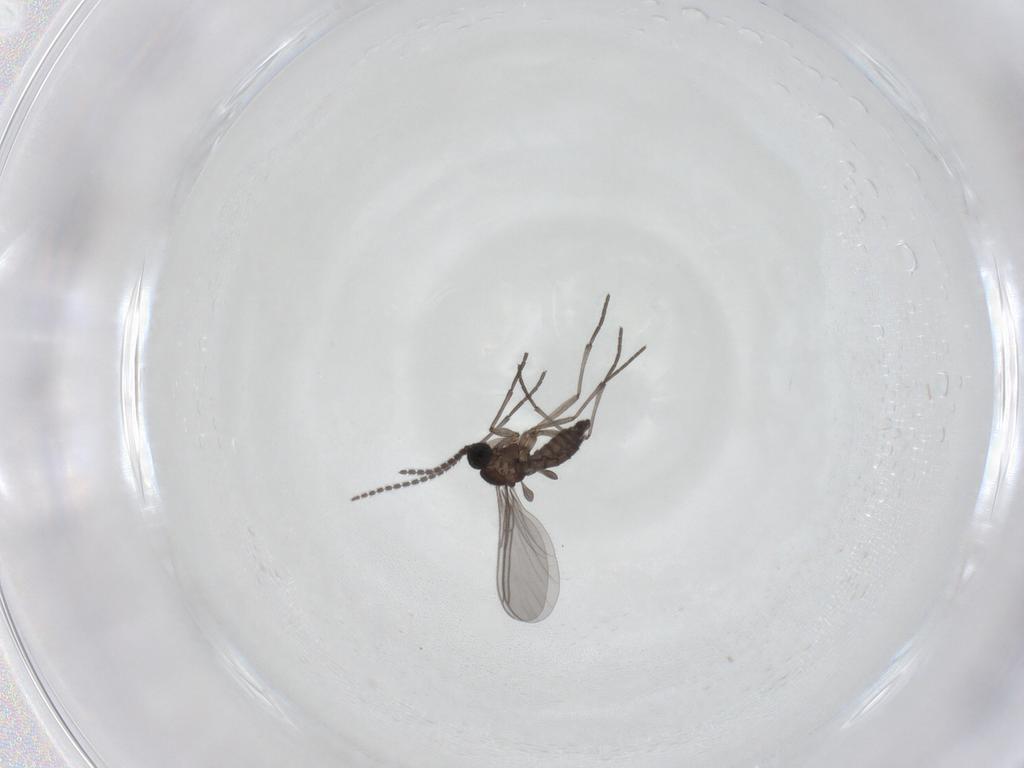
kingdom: Animalia
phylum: Arthropoda
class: Insecta
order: Diptera
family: Sciaridae
